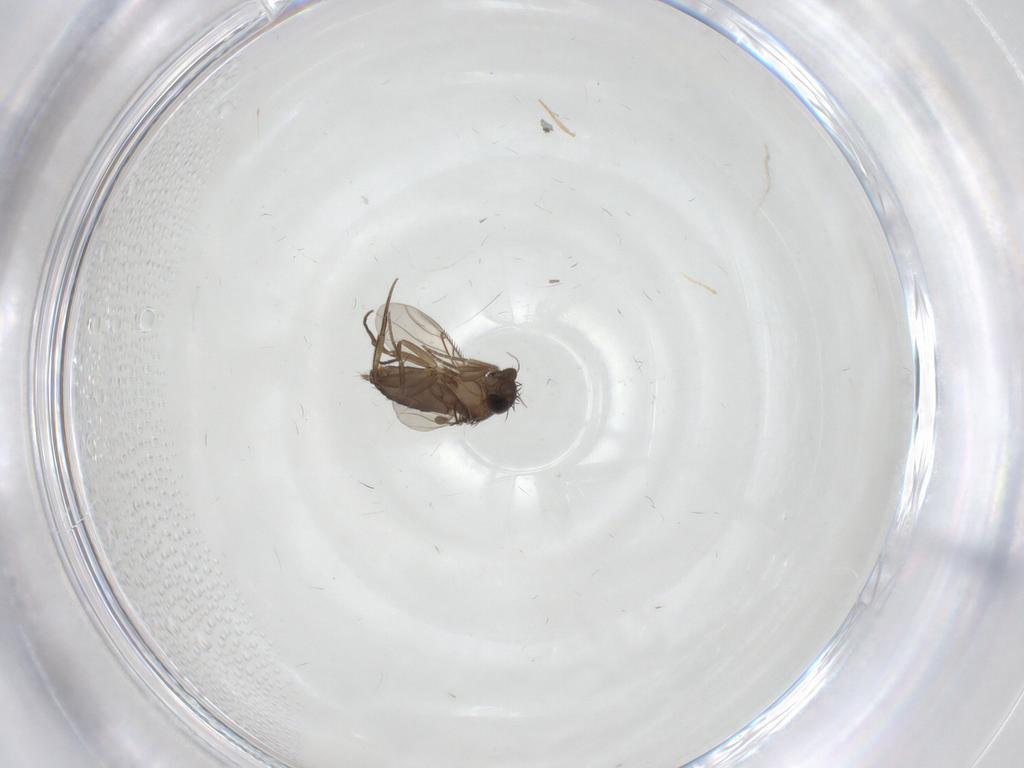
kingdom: Animalia
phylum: Arthropoda
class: Insecta
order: Diptera
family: Phoridae
